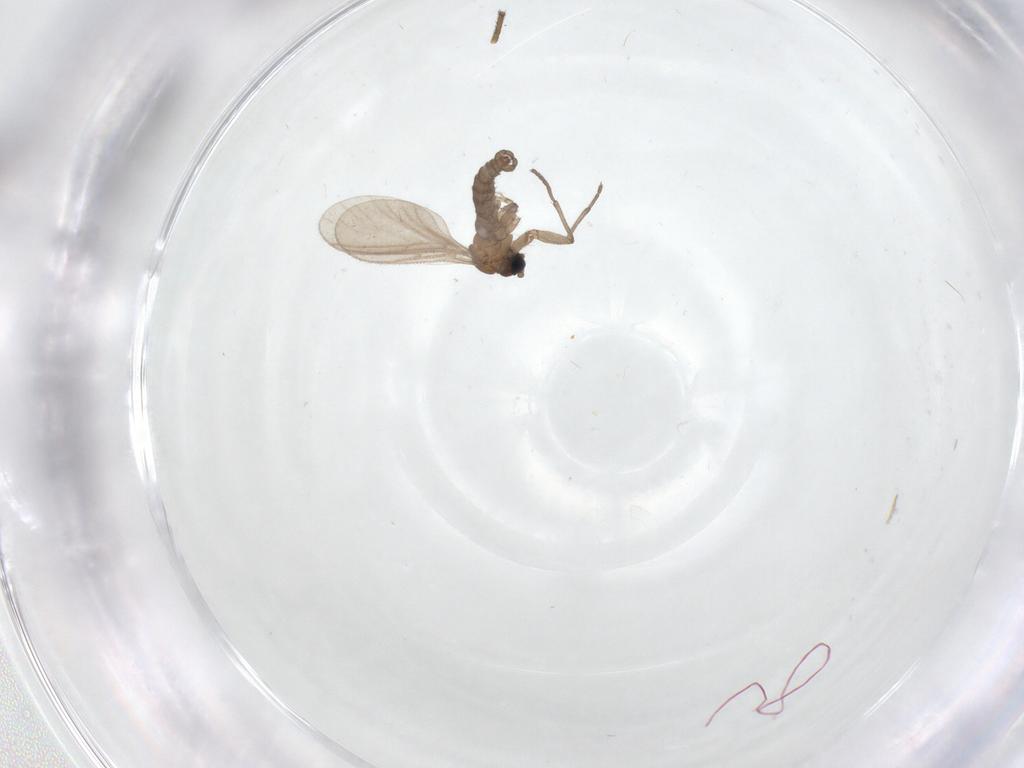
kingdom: Animalia
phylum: Arthropoda
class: Insecta
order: Diptera
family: Sciaridae
